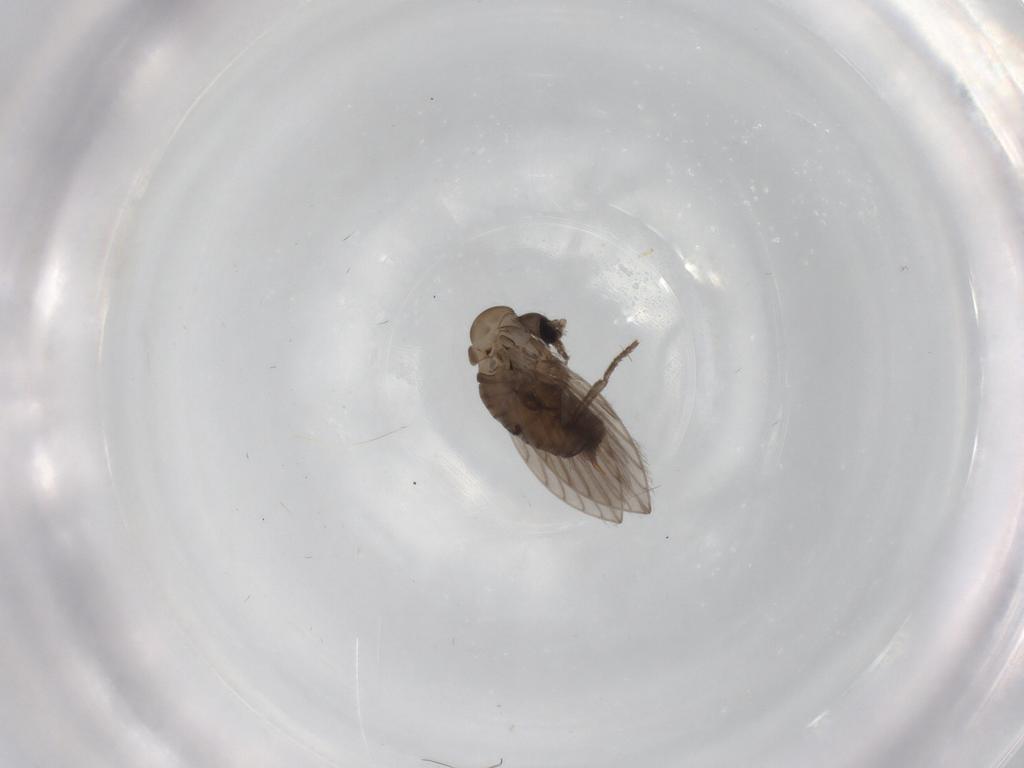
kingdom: Animalia
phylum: Arthropoda
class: Insecta
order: Diptera
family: Psychodidae
